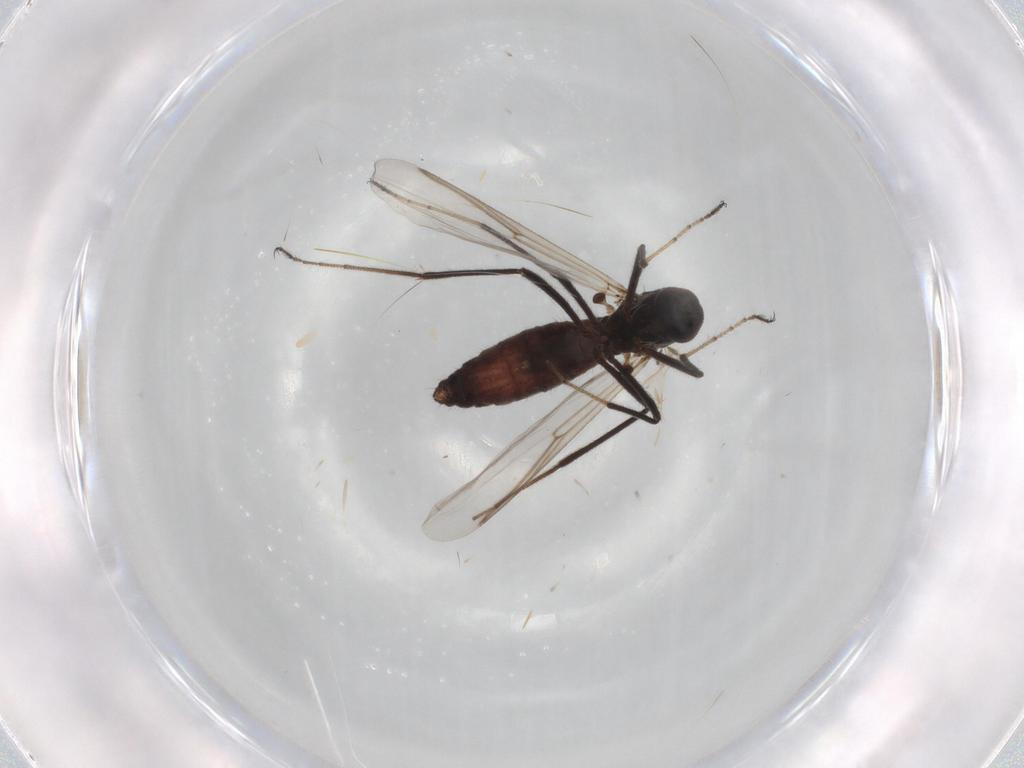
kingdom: Animalia
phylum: Arthropoda
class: Insecta
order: Diptera
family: Ceratopogonidae
